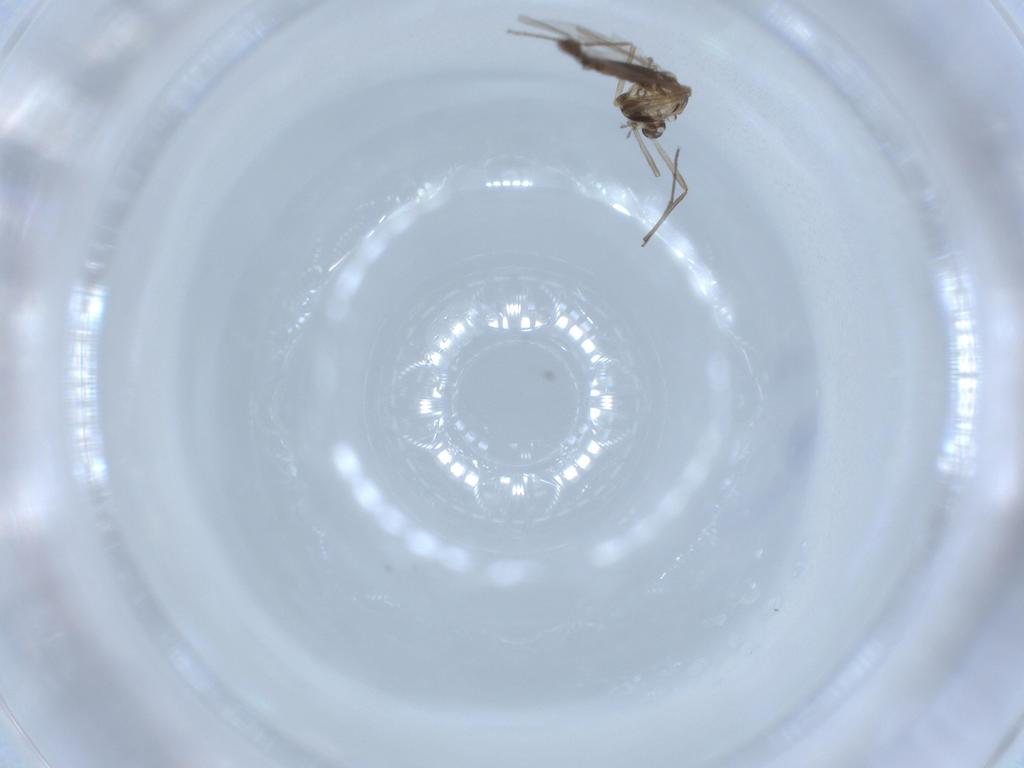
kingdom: Animalia
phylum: Arthropoda
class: Insecta
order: Diptera
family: Chironomidae
